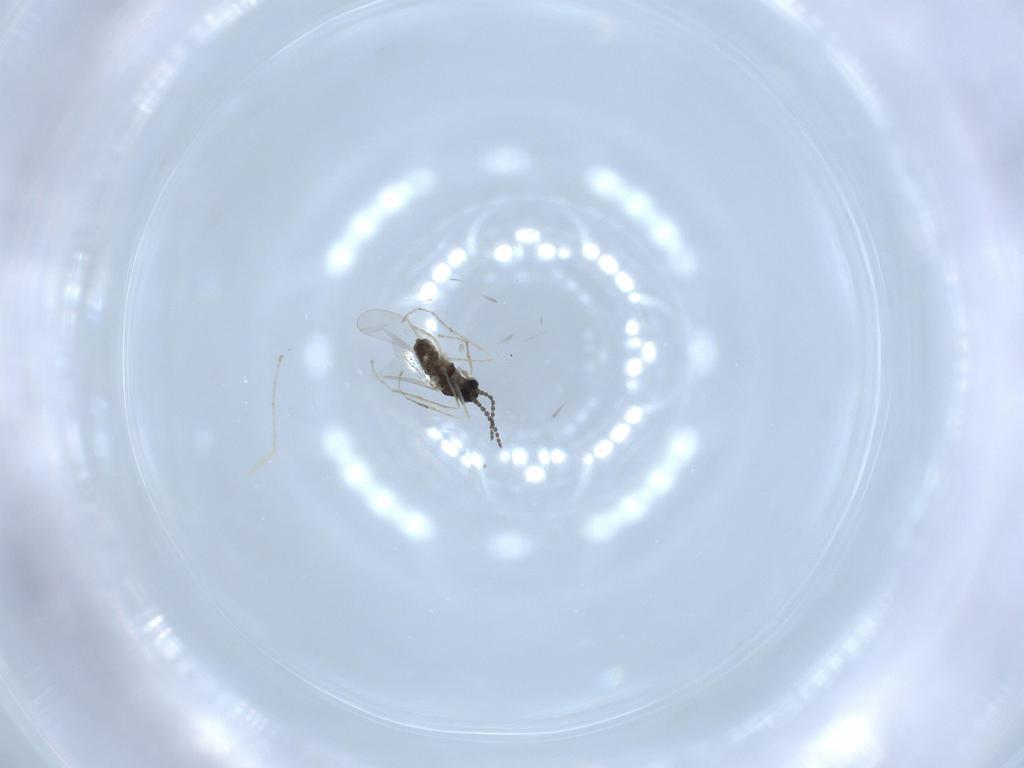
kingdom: Animalia
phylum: Arthropoda
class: Insecta
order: Diptera
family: Cecidomyiidae
